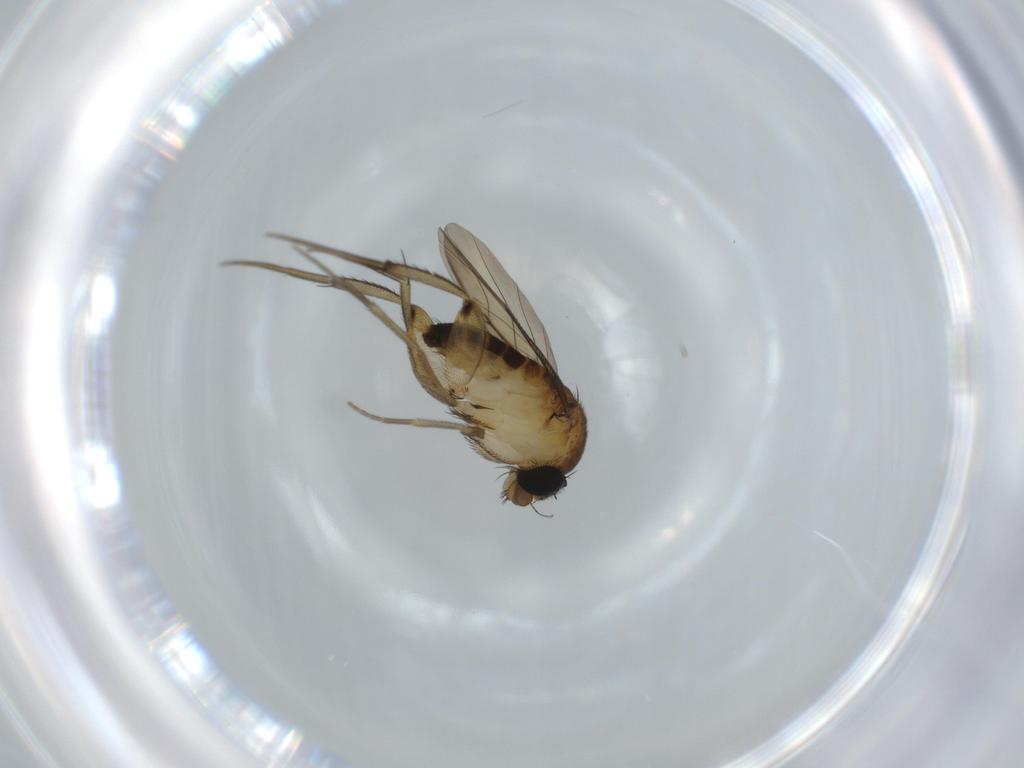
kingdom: Animalia
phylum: Arthropoda
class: Insecta
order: Diptera
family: Phoridae
